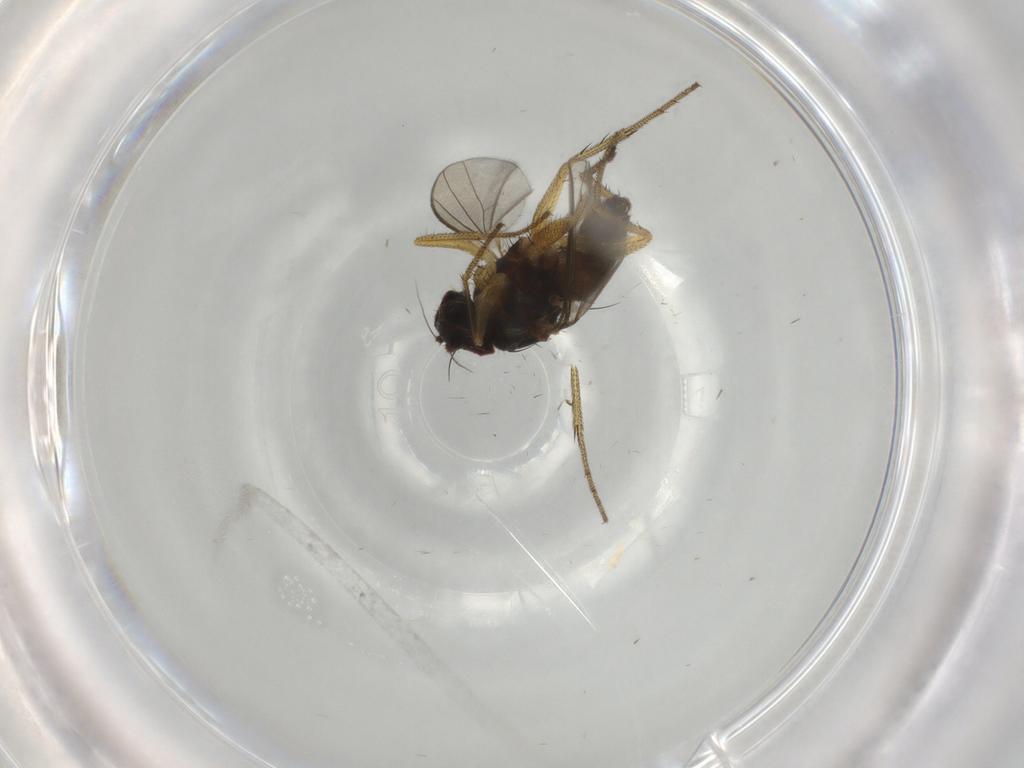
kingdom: Animalia
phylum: Arthropoda
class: Insecta
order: Diptera
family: Dolichopodidae
